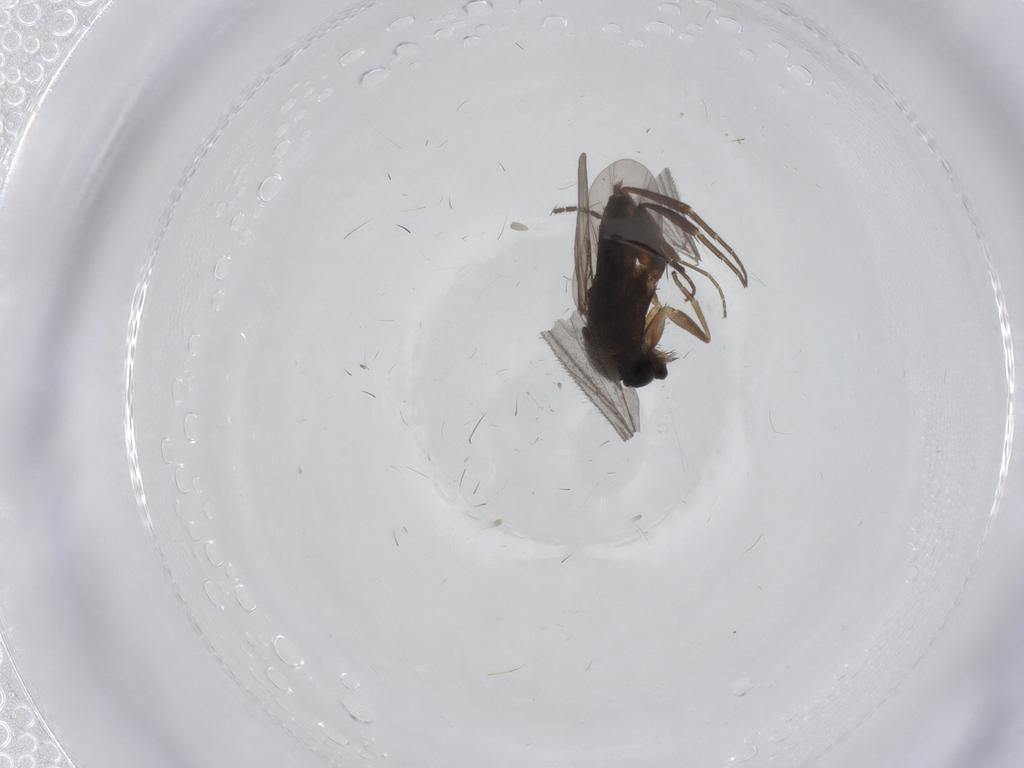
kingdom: Animalia
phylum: Arthropoda
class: Insecta
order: Diptera
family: Phoridae
